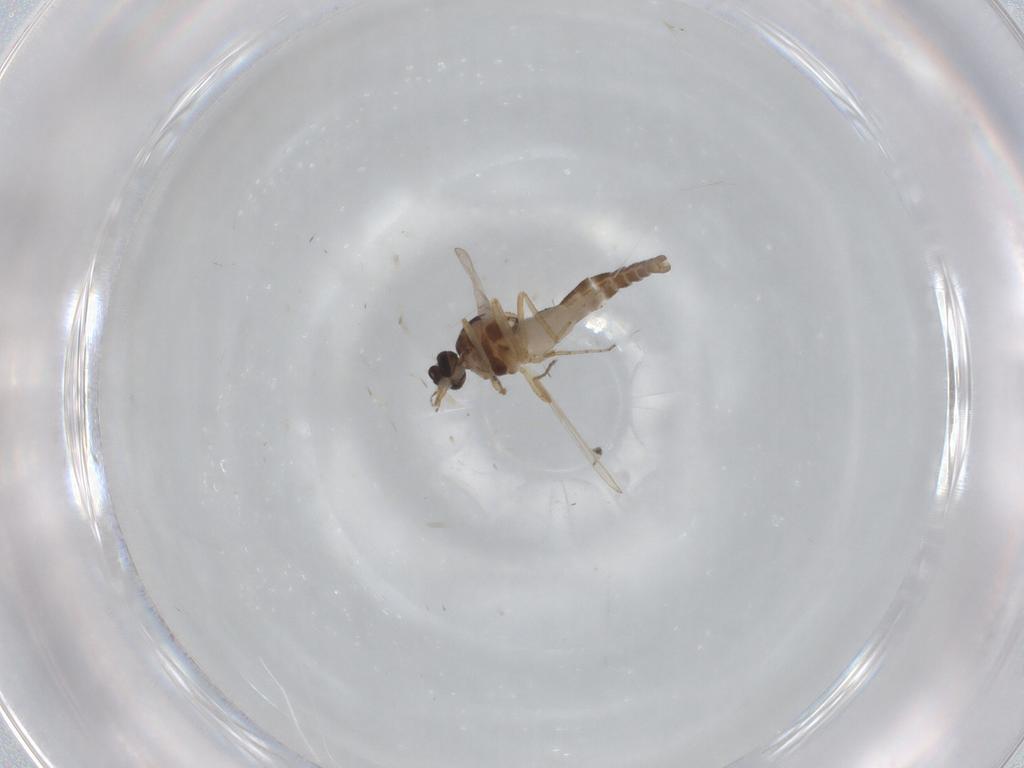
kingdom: Animalia
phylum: Arthropoda
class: Insecta
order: Diptera
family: Ceratopogonidae
